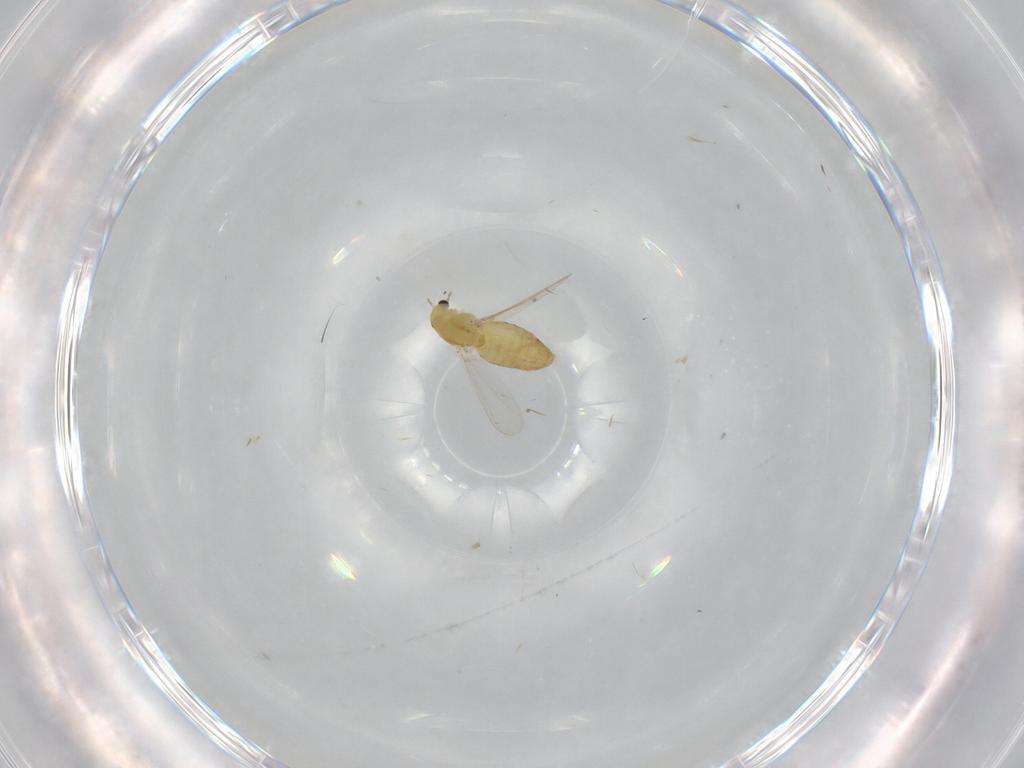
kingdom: Animalia
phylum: Arthropoda
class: Insecta
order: Diptera
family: Chironomidae
